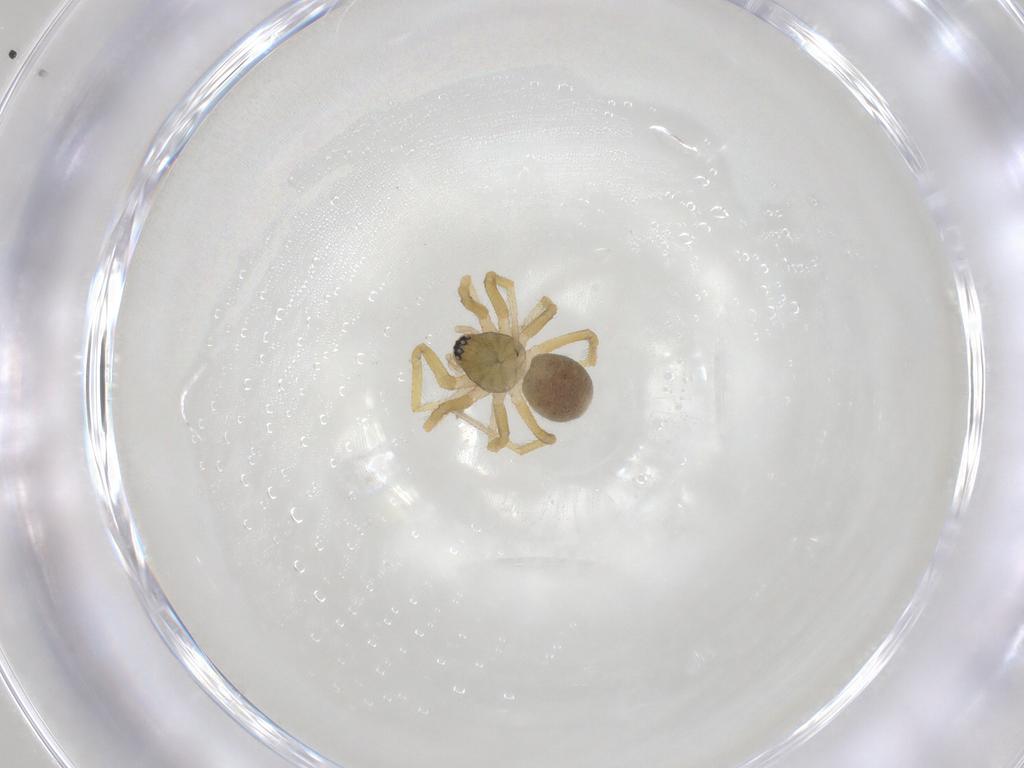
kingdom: Animalia
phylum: Arthropoda
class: Arachnida
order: Araneae
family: Linyphiidae
